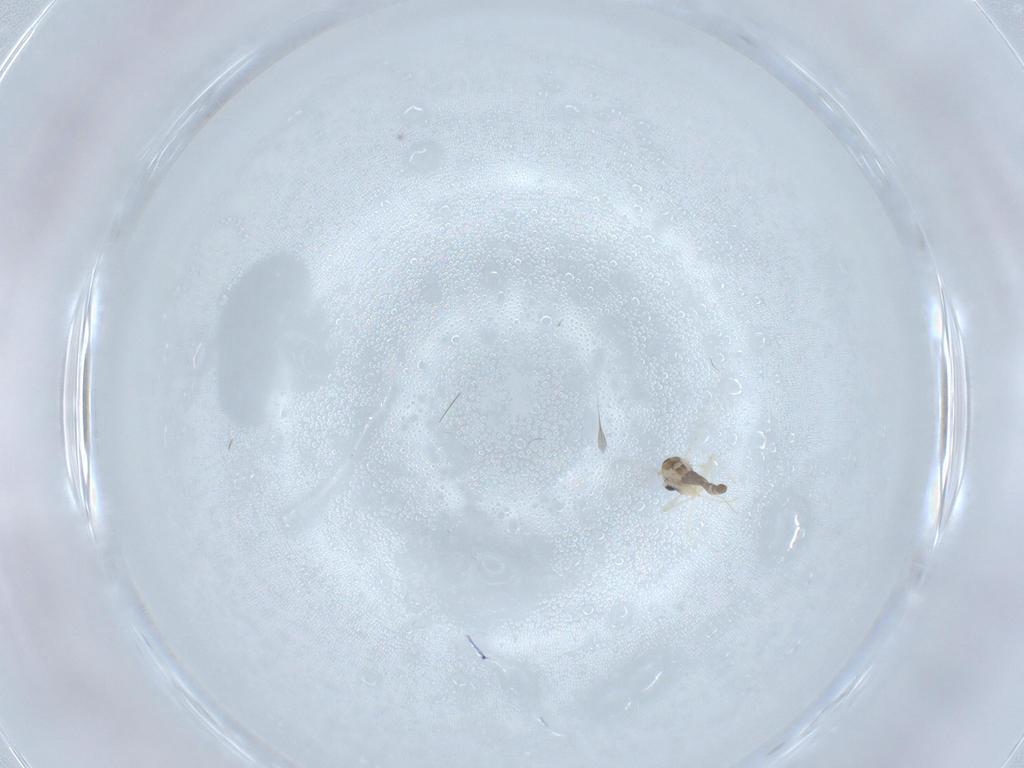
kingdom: Animalia
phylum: Arthropoda
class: Insecta
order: Diptera
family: Chironomidae
